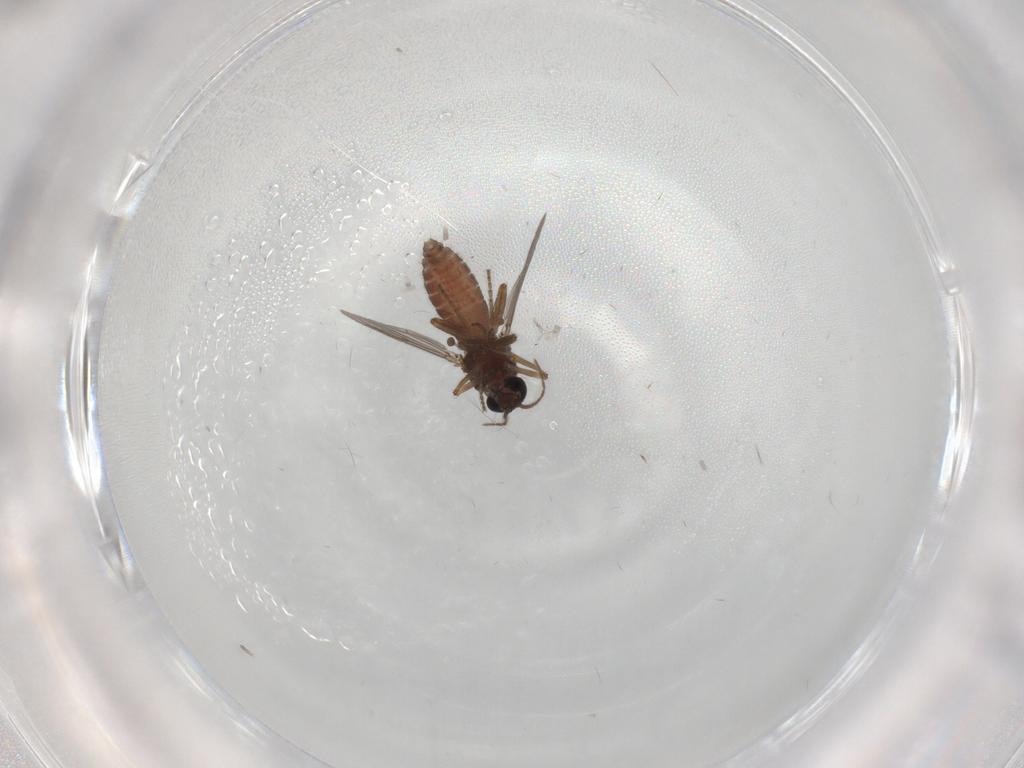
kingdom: Animalia
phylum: Arthropoda
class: Insecta
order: Diptera
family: Ceratopogonidae
